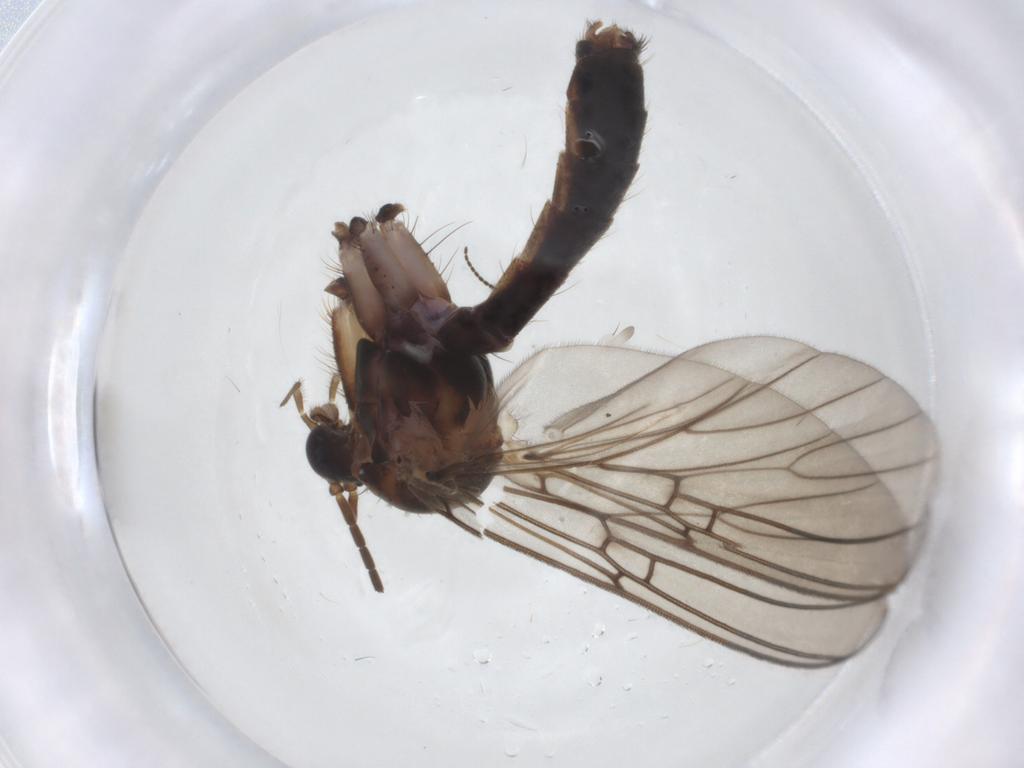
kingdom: Animalia
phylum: Arthropoda
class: Insecta
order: Diptera
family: Mycetophilidae
